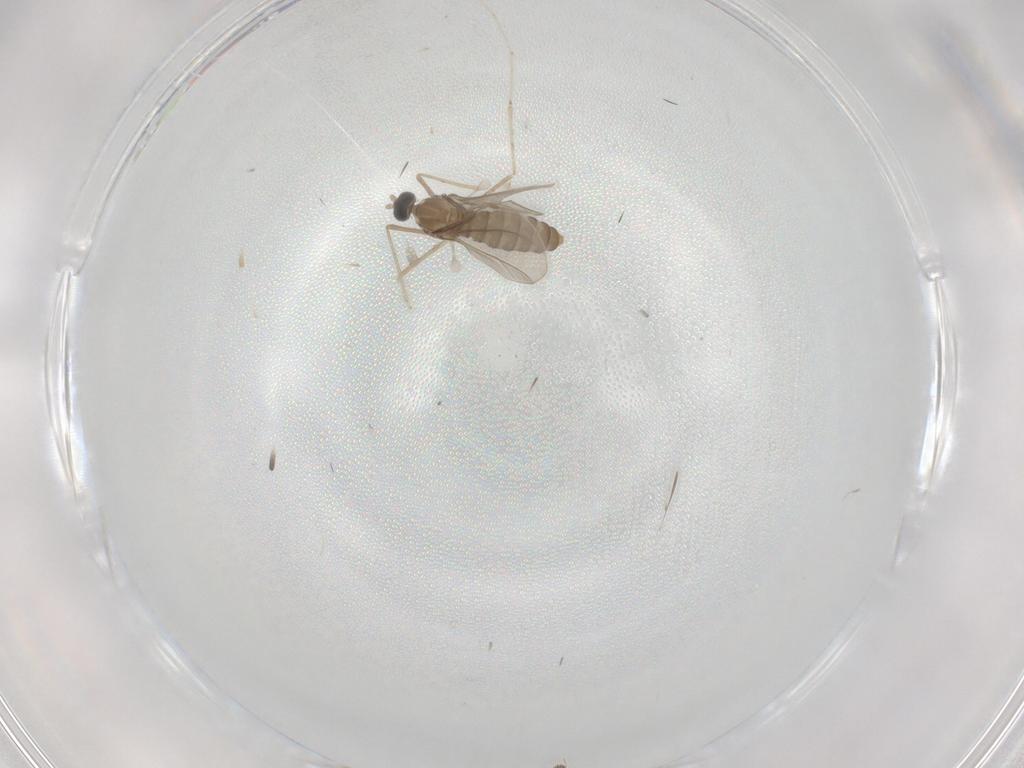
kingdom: Animalia
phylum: Arthropoda
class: Insecta
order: Diptera
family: Cecidomyiidae
